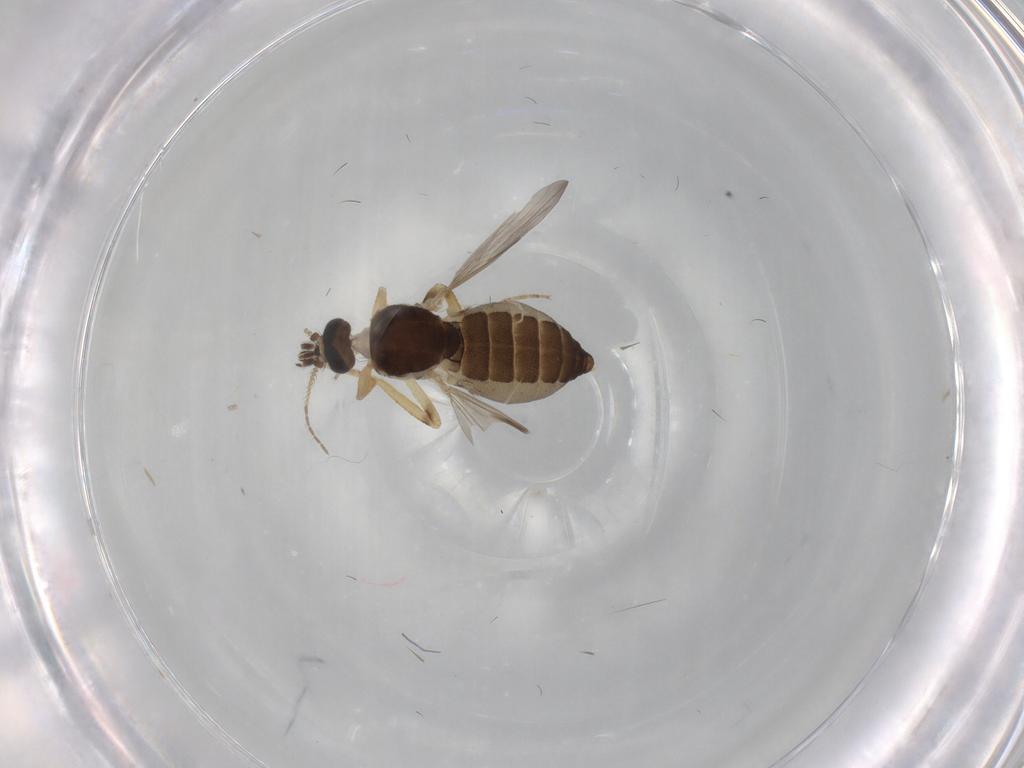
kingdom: Animalia
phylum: Arthropoda
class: Insecta
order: Diptera
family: Ceratopogonidae
